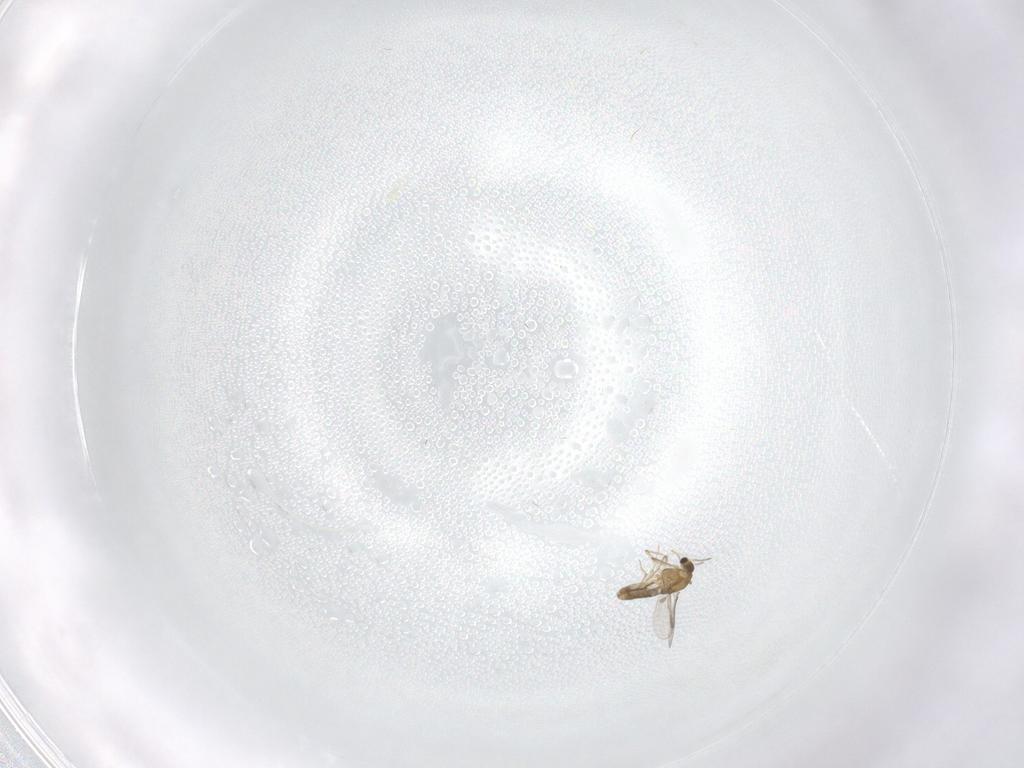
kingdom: Animalia
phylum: Arthropoda
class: Insecta
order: Diptera
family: Chironomidae
